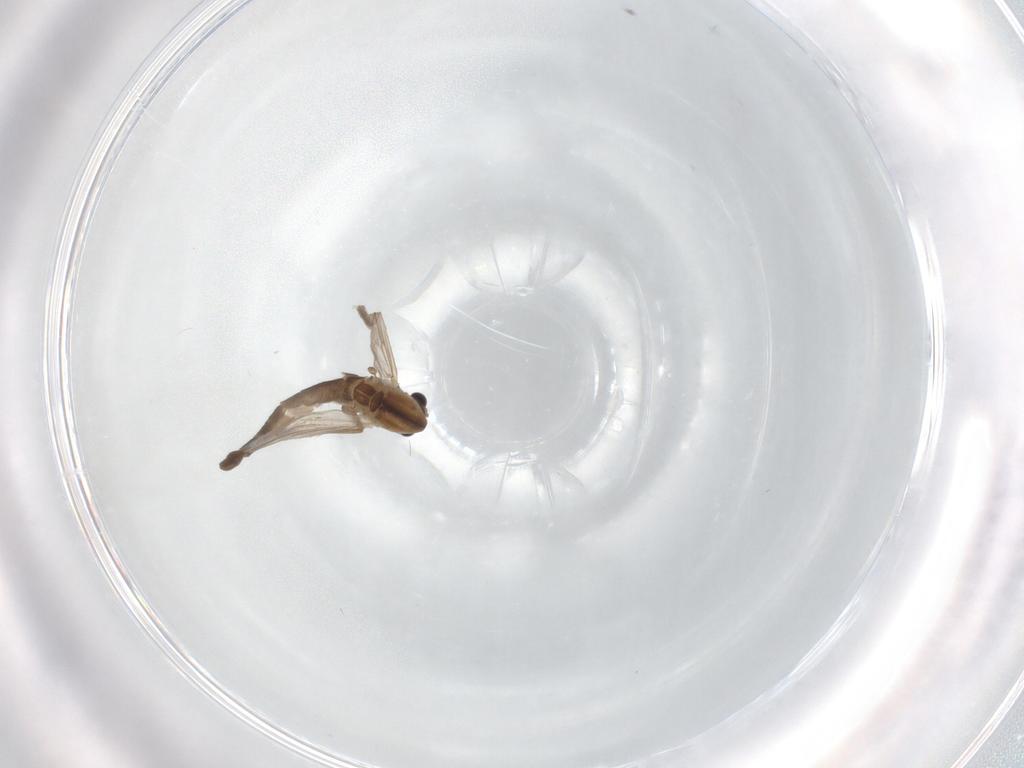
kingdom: Animalia
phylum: Arthropoda
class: Insecta
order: Diptera
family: Chironomidae
